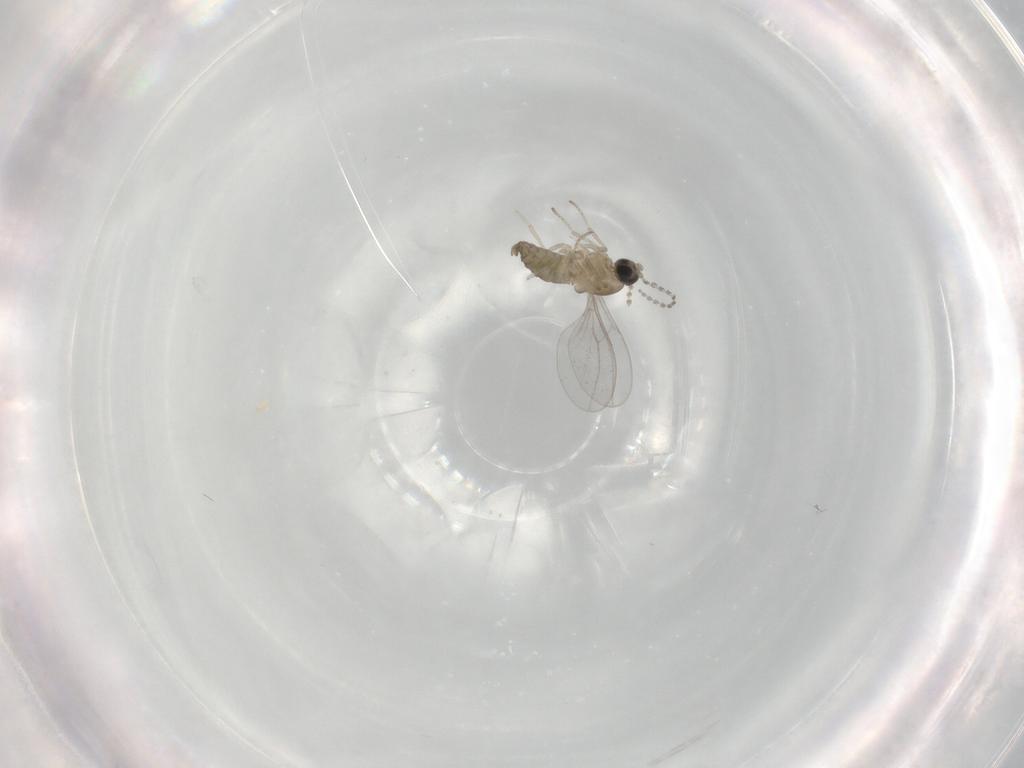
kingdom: Animalia
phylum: Arthropoda
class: Insecta
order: Diptera
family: Cecidomyiidae
